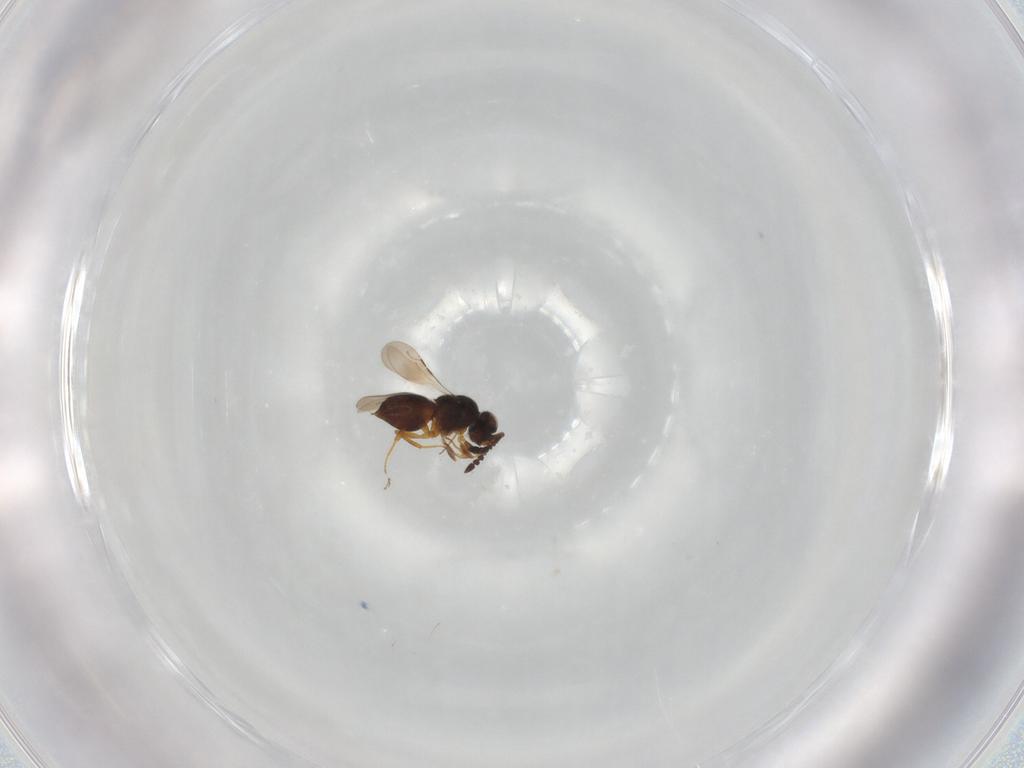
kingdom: Animalia
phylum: Arthropoda
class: Insecta
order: Hymenoptera
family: Ceraphronidae
